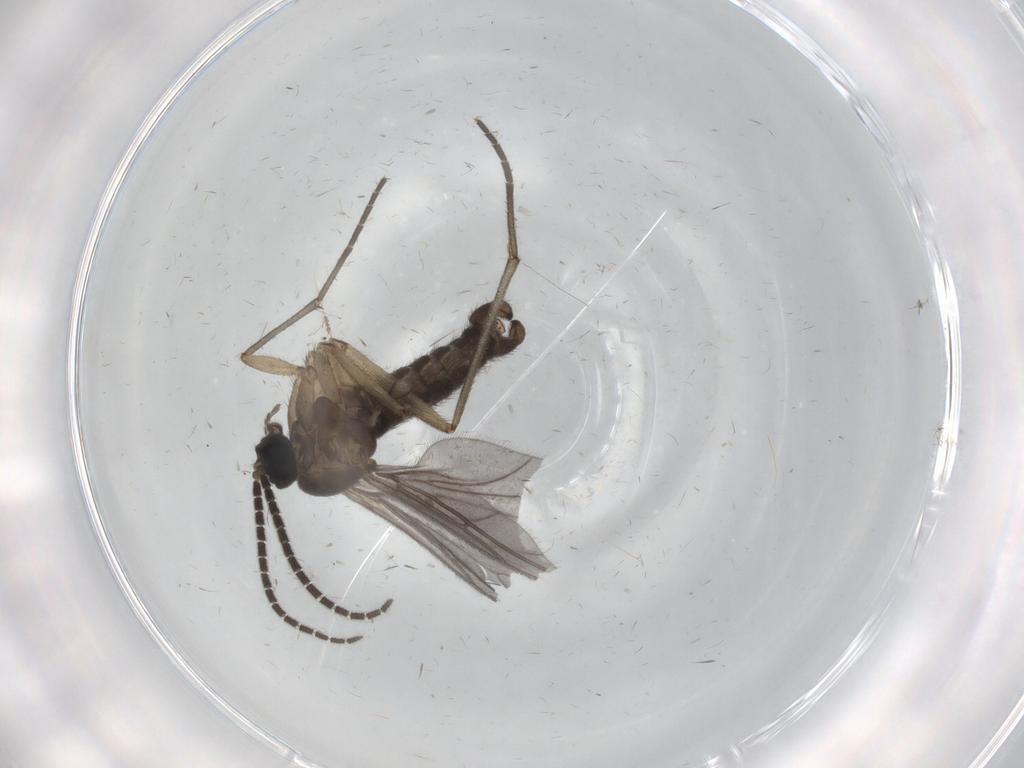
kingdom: Animalia
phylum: Arthropoda
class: Insecta
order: Diptera
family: Sciaridae
